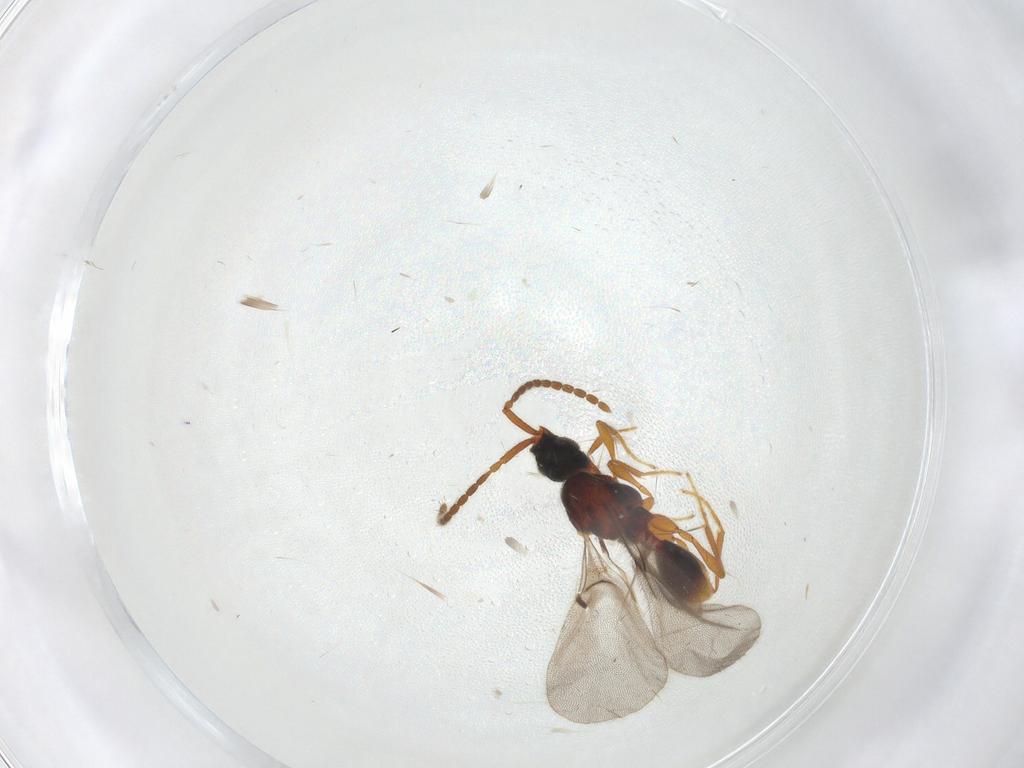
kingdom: Animalia
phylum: Arthropoda
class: Insecta
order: Hymenoptera
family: Diapriidae
